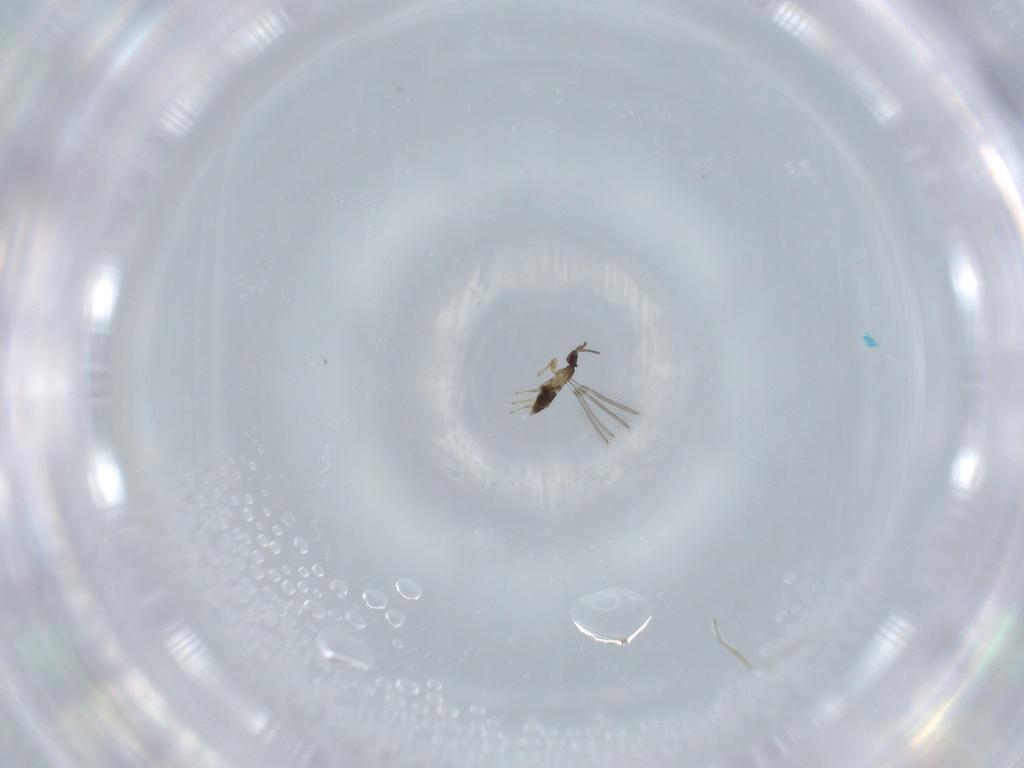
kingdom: Animalia
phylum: Arthropoda
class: Insecta
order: Hymenoptera
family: Mymaridae
